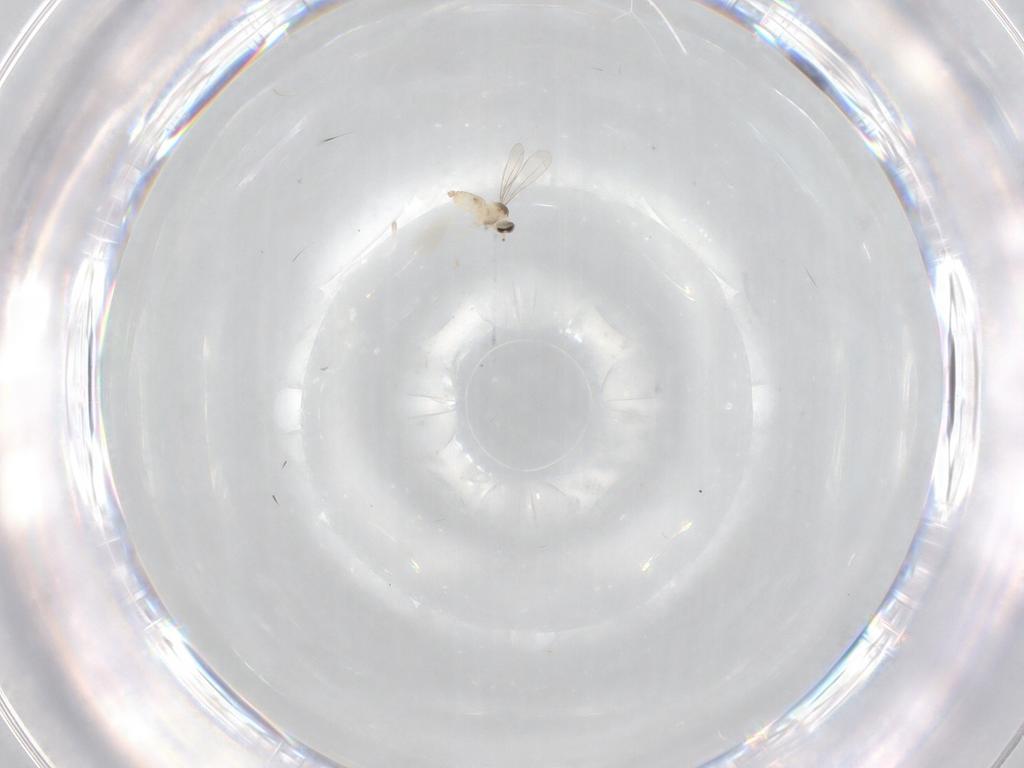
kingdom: Animalia
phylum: Arthropoda
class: Insecta
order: Diptera
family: Cecidomyiidae
